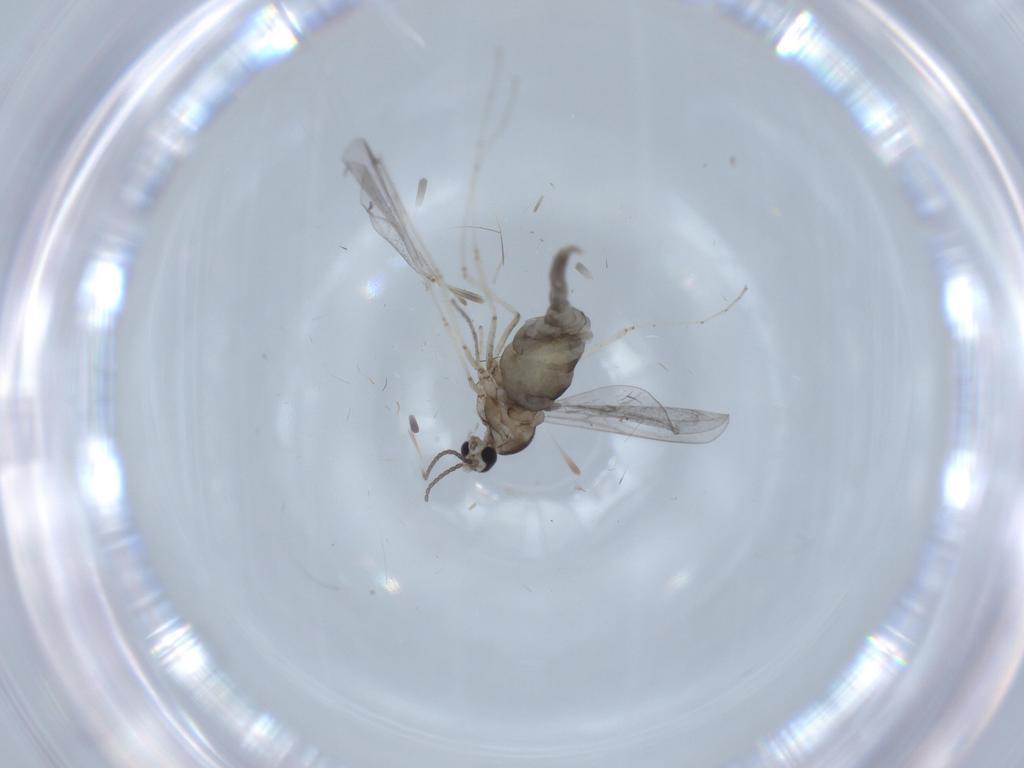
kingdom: Animalia
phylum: Arthropoda
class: Insecta
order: Diptera
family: Cecidomyiidae
